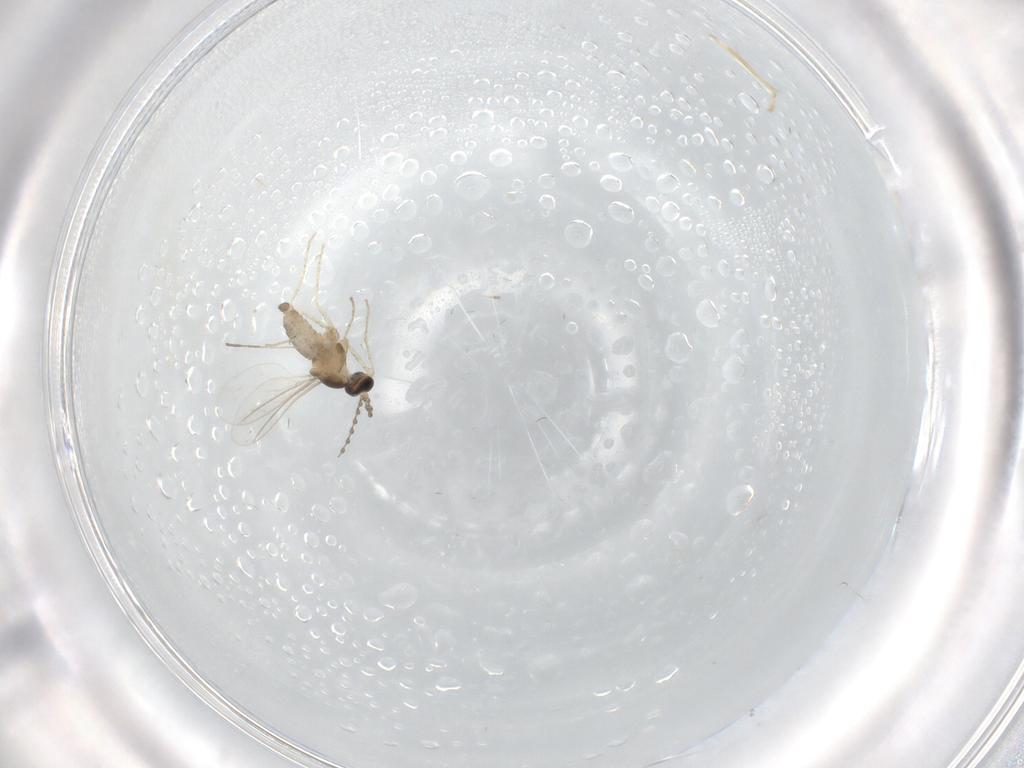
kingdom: Animalia
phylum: Arthropoda
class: Insecta
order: Diptera
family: Cecidomyiidae
